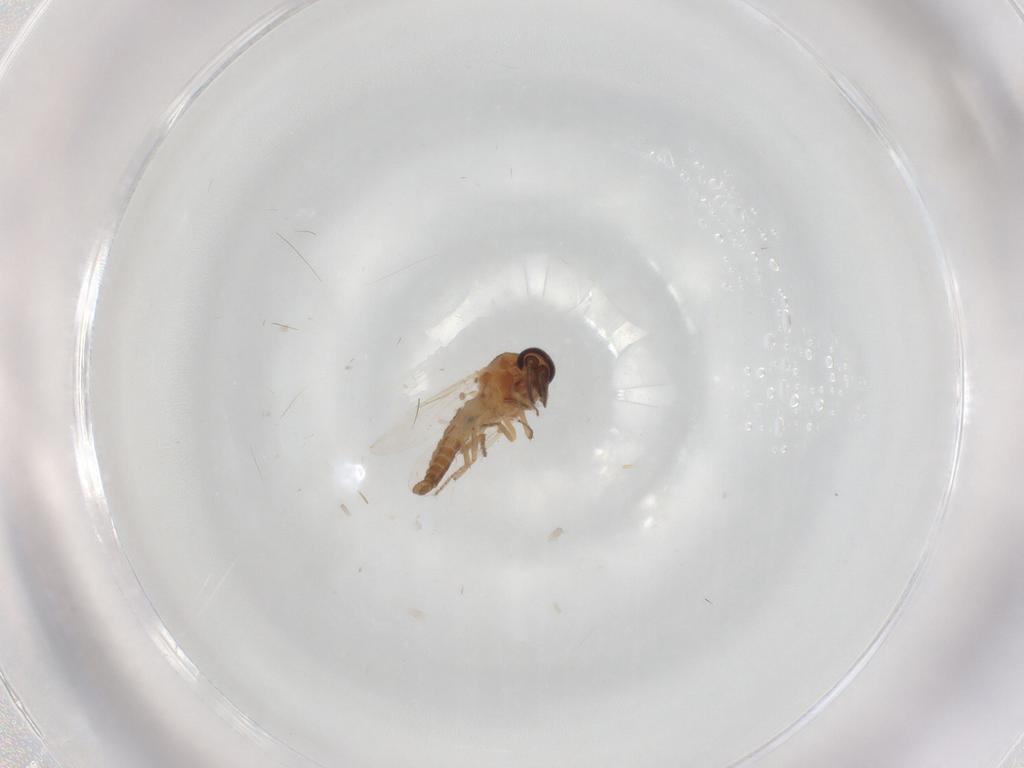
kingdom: Animalia
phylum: Arthropoda
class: Insecta
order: Diptera
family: Ceratopogonidae
